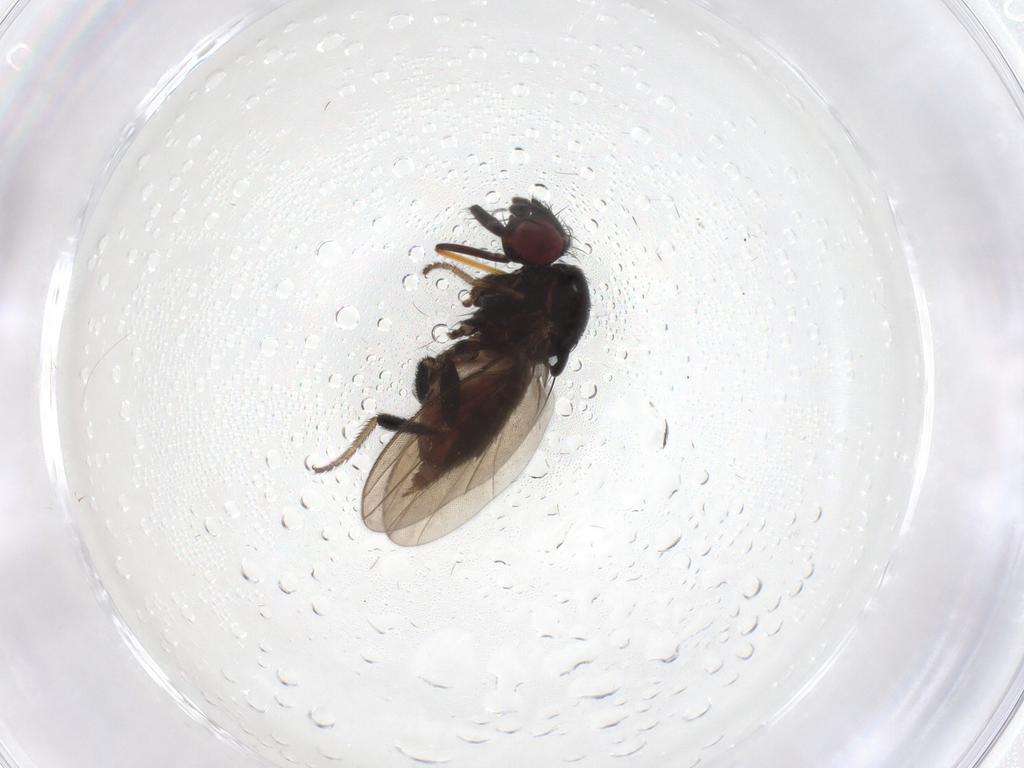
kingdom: Animalia
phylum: Arthropoda
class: Insecta
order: Diptera
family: Milichiidae
